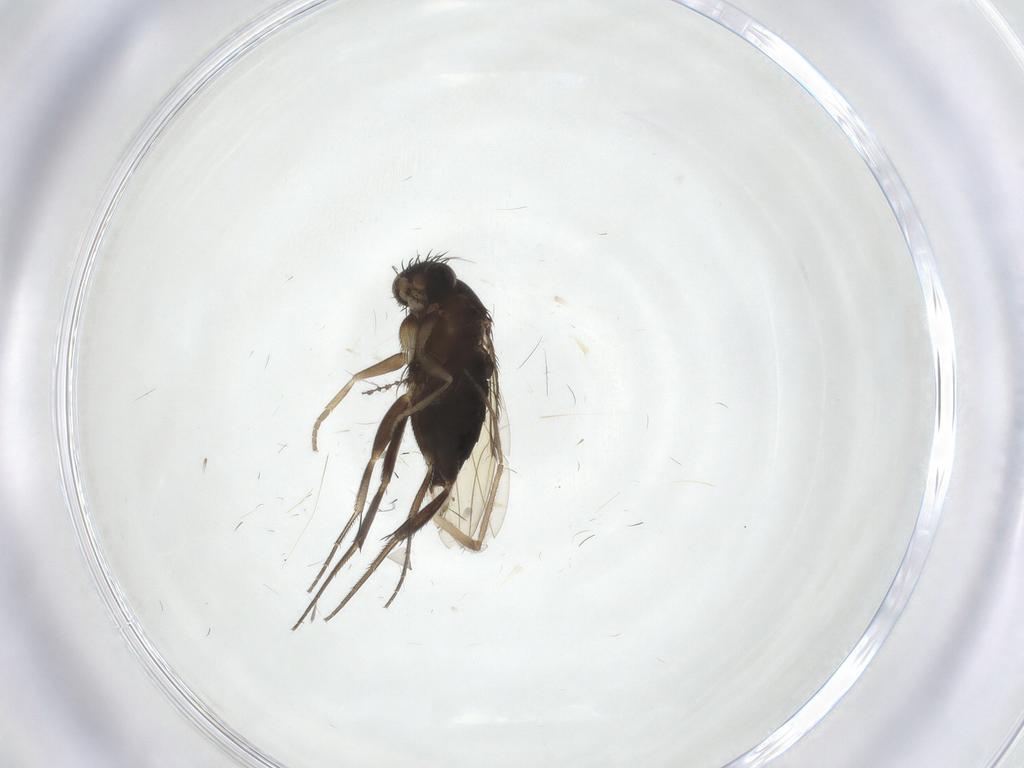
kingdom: Animalia
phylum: Arthropoda
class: Insecta
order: Diptera
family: Phoridae
